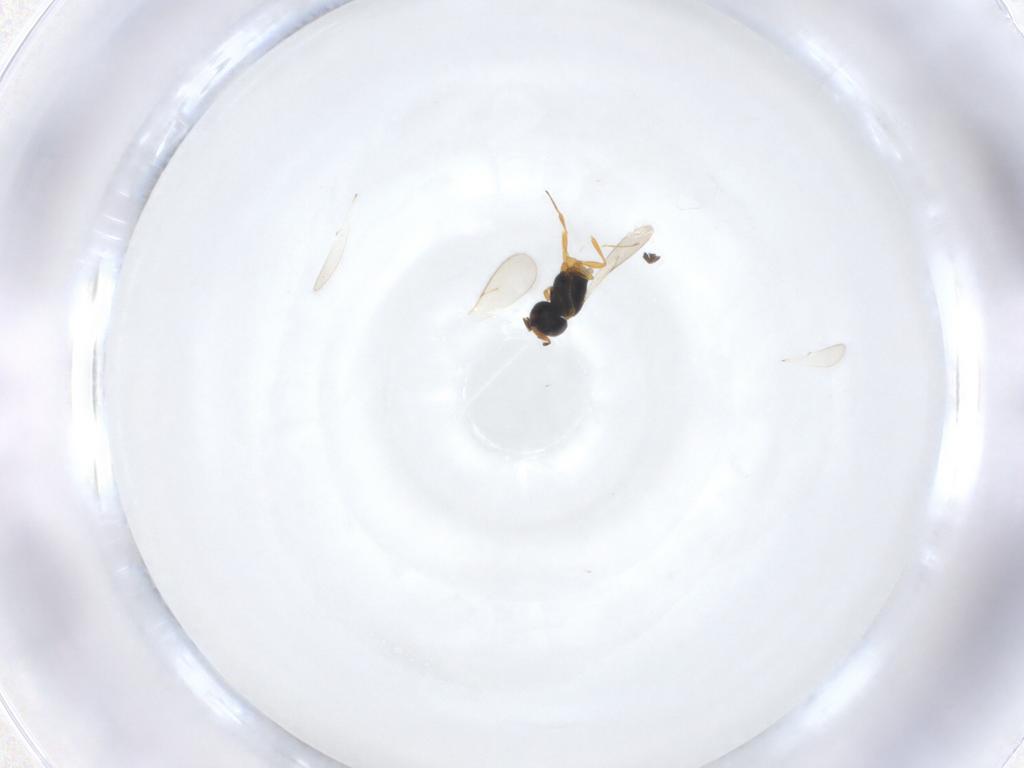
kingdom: Animalia
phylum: Arthropoda
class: Insecta
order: Hymenoptera
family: Scelionidae
